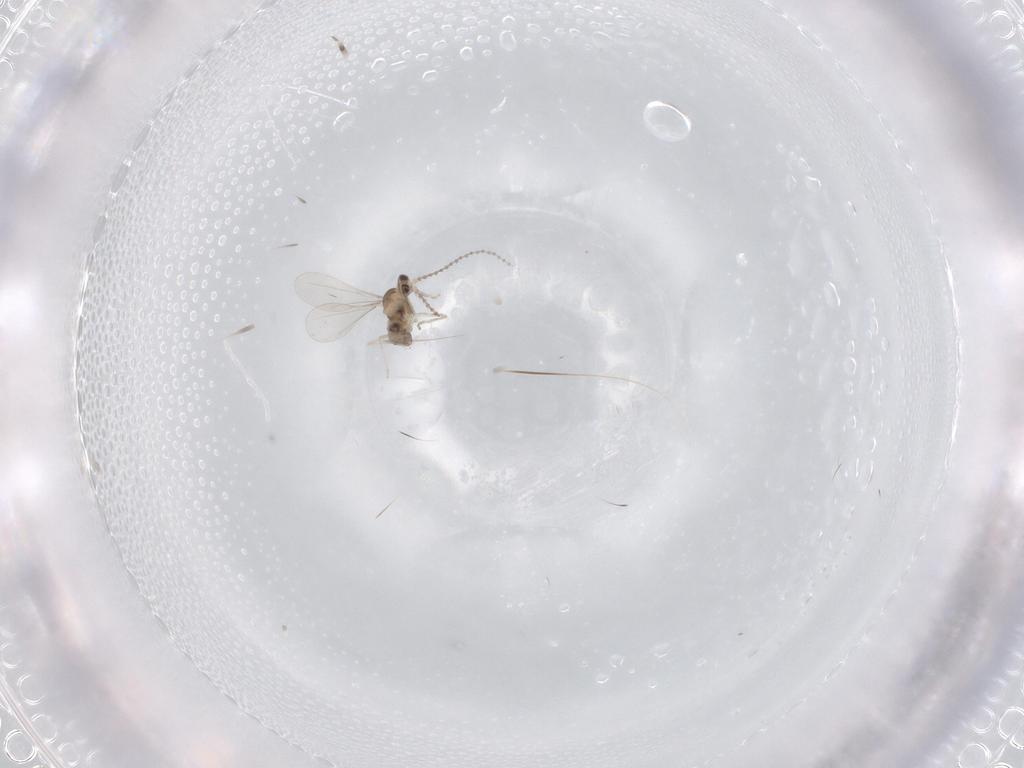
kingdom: Animalia
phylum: Arthropoda
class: Insecta
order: Diptera
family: Cecidomyiidae
